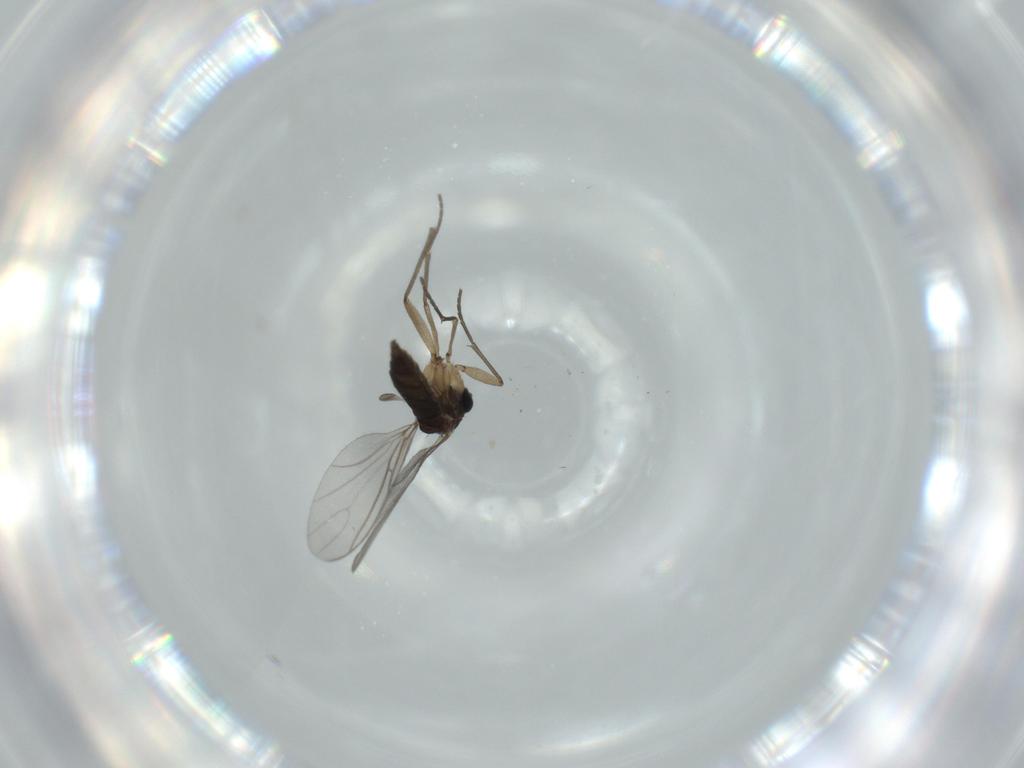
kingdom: Animalia
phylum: Arthropoda
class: Insecta
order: Diptera
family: Sciaridae
